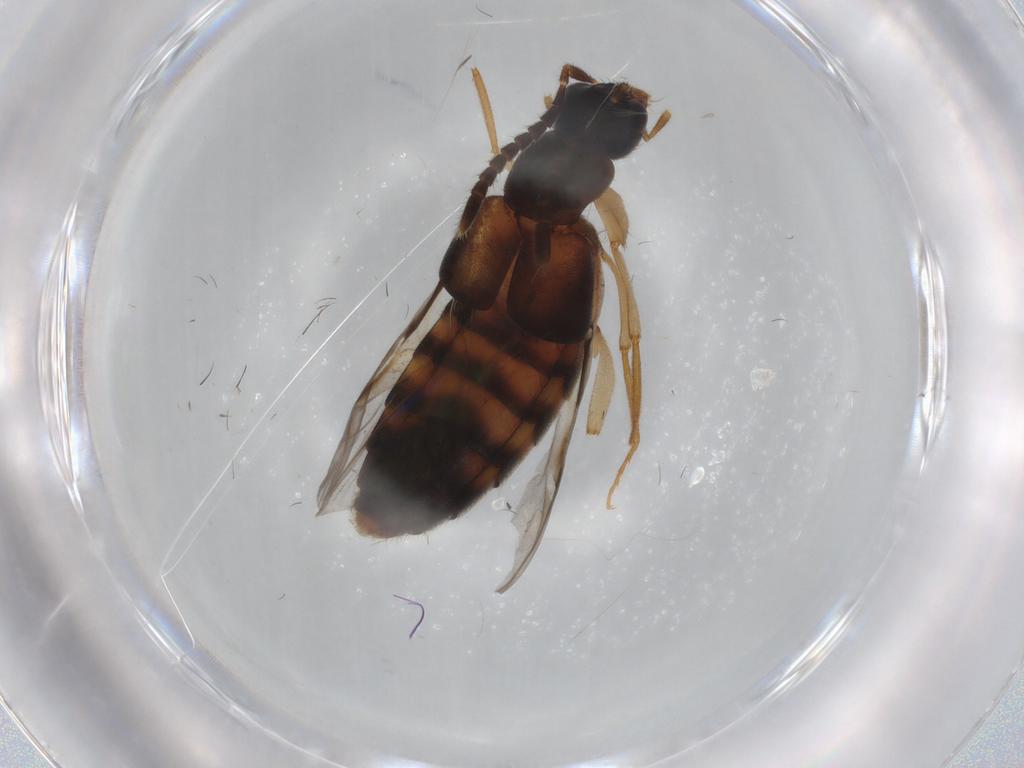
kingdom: Animalia
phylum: Arthropoda
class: Insecta
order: Coleoptera
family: Staphylinidae
